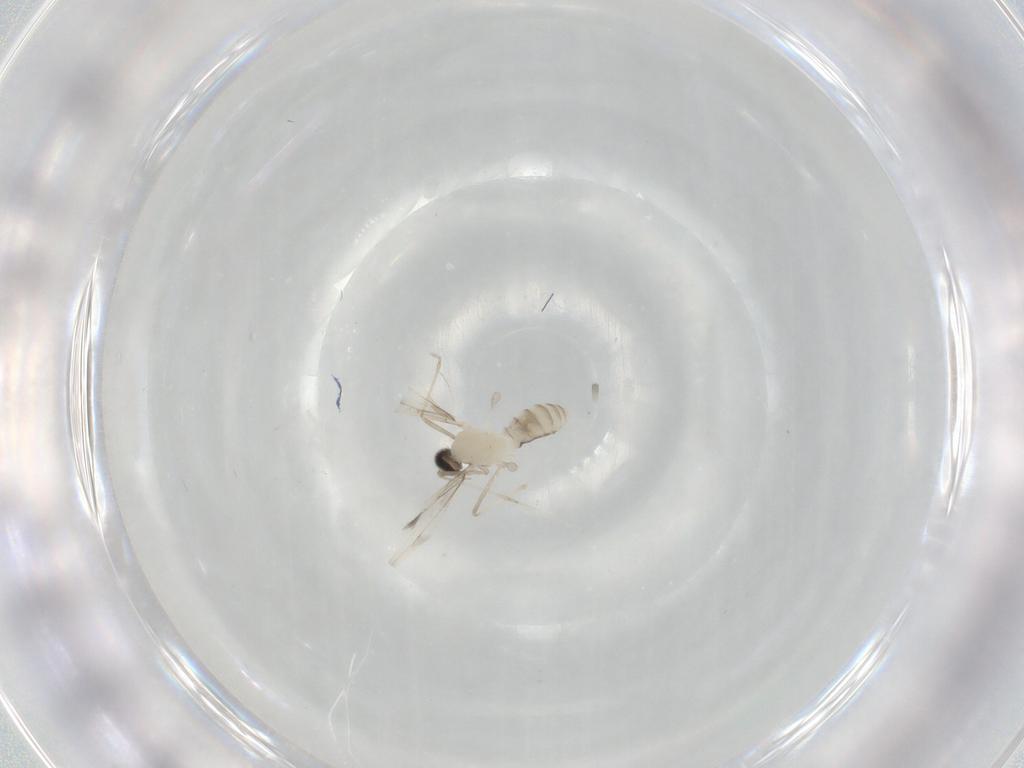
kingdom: Animalia
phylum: Arthropoda
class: Insecta
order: Diptera
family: Cecidomyiidae
